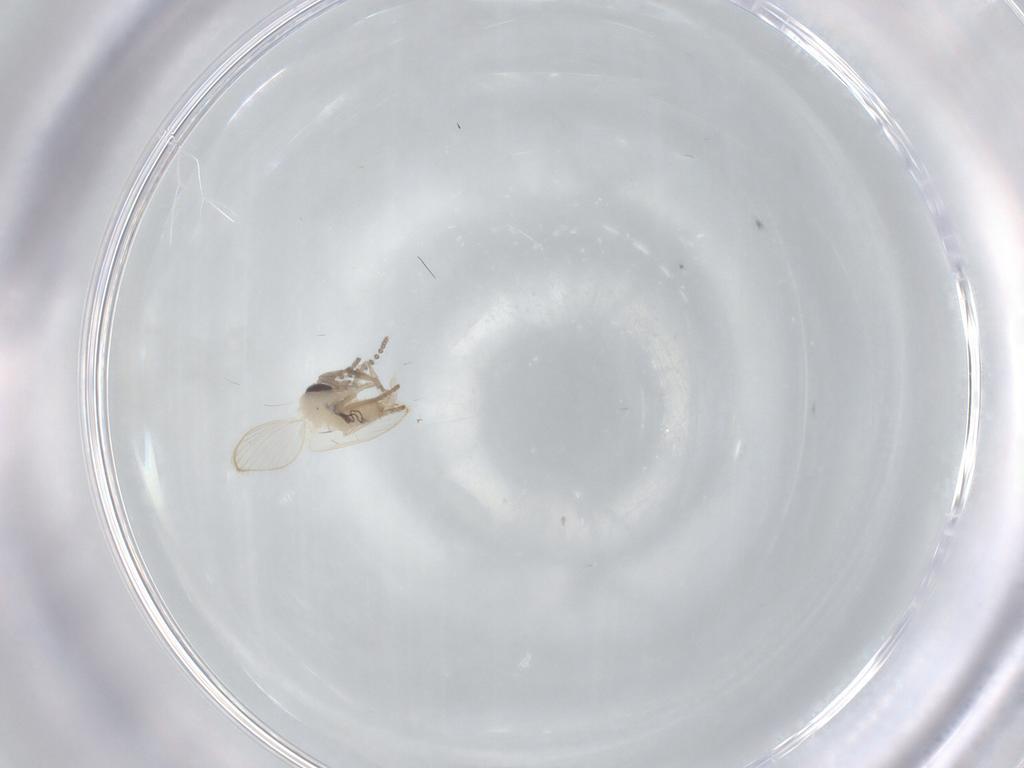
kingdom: Animalia
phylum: Arthropoda
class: Insecta
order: Diptera
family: Psychodidae
